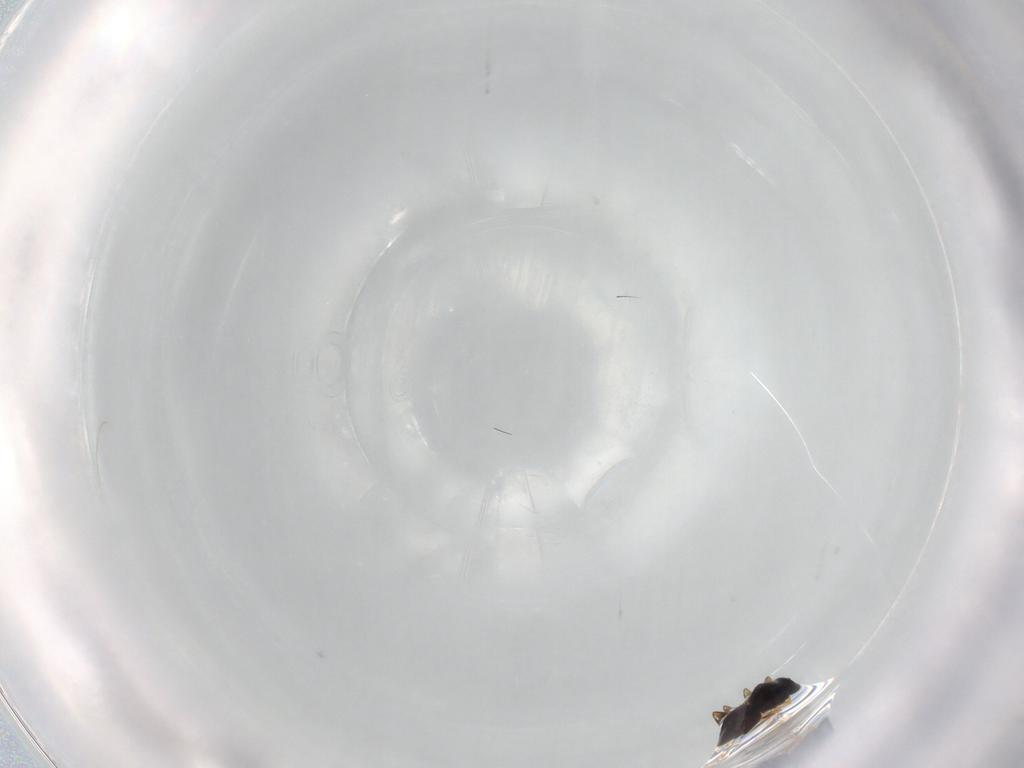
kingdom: Animalia
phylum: Arthropoda
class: Insecta
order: Hymenoptera
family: Platygastridae
